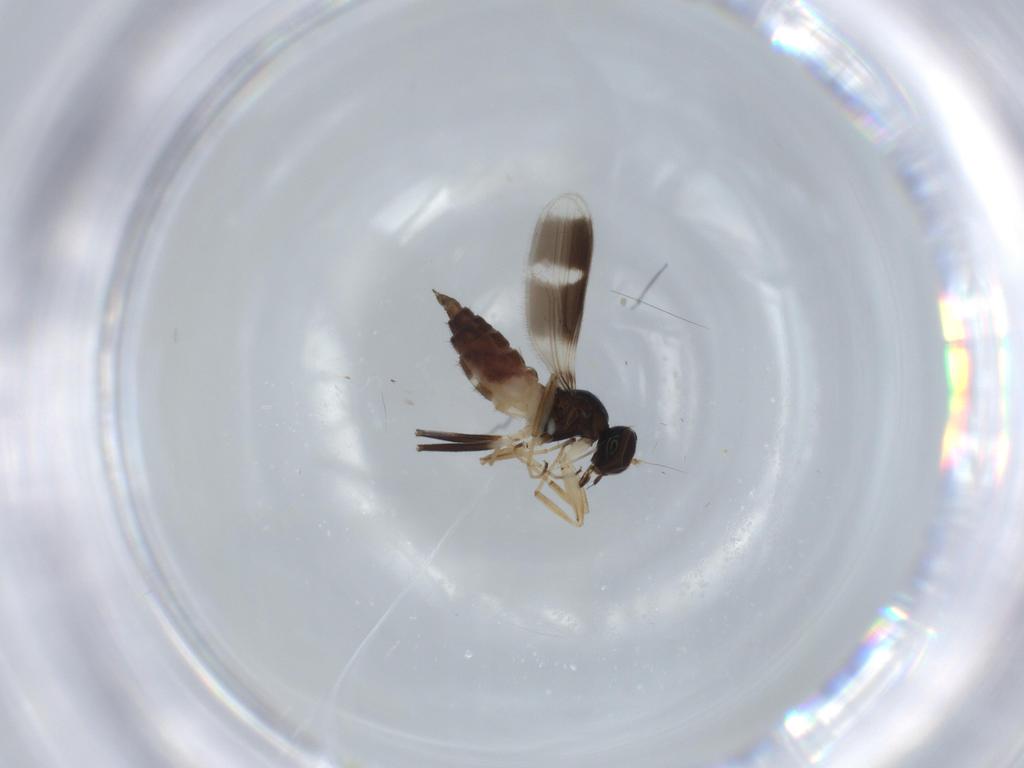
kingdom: Animalia
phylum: Arthropoda
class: Insecta
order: Diptera
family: Hybotidae
